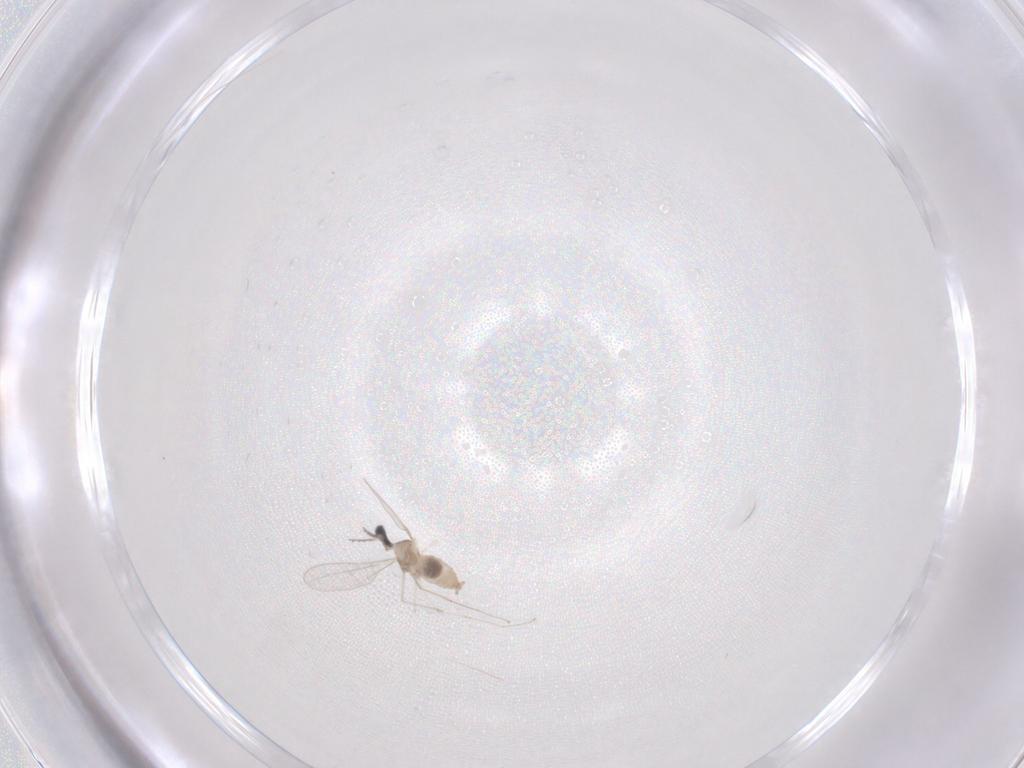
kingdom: Animalia
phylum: Arthropoda
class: Insecta
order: Diptera
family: Cecidomyiidae
